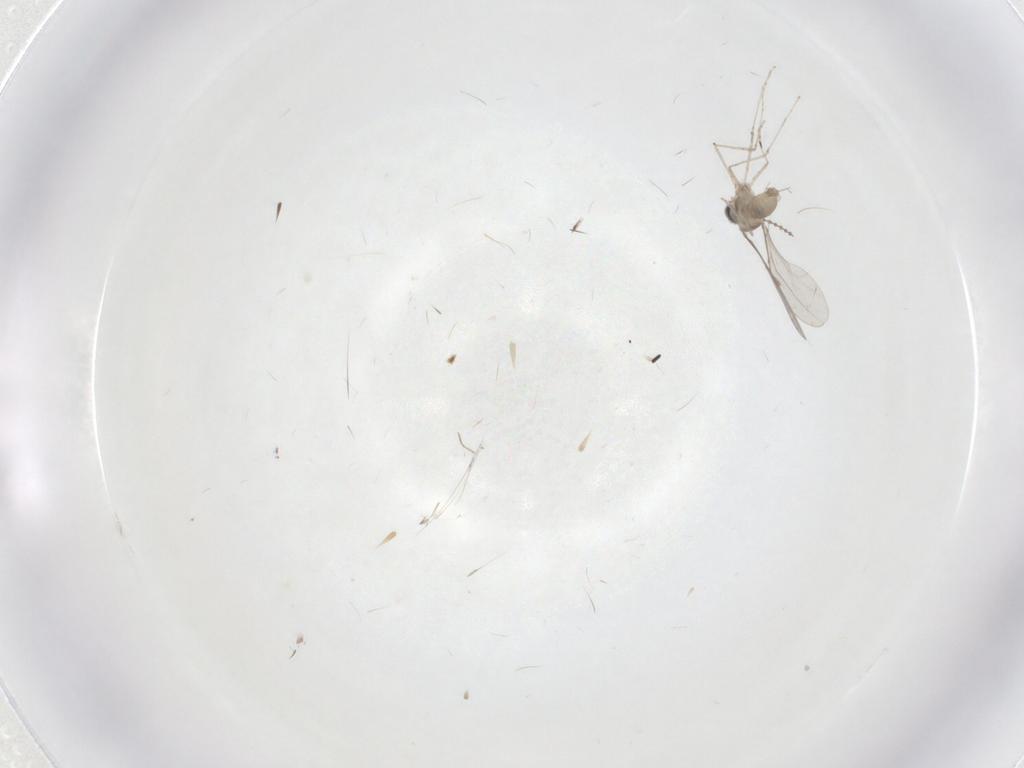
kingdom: Animalia
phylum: Arthropoda
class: Insecta
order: Diptera
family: Cecidomyiidae
